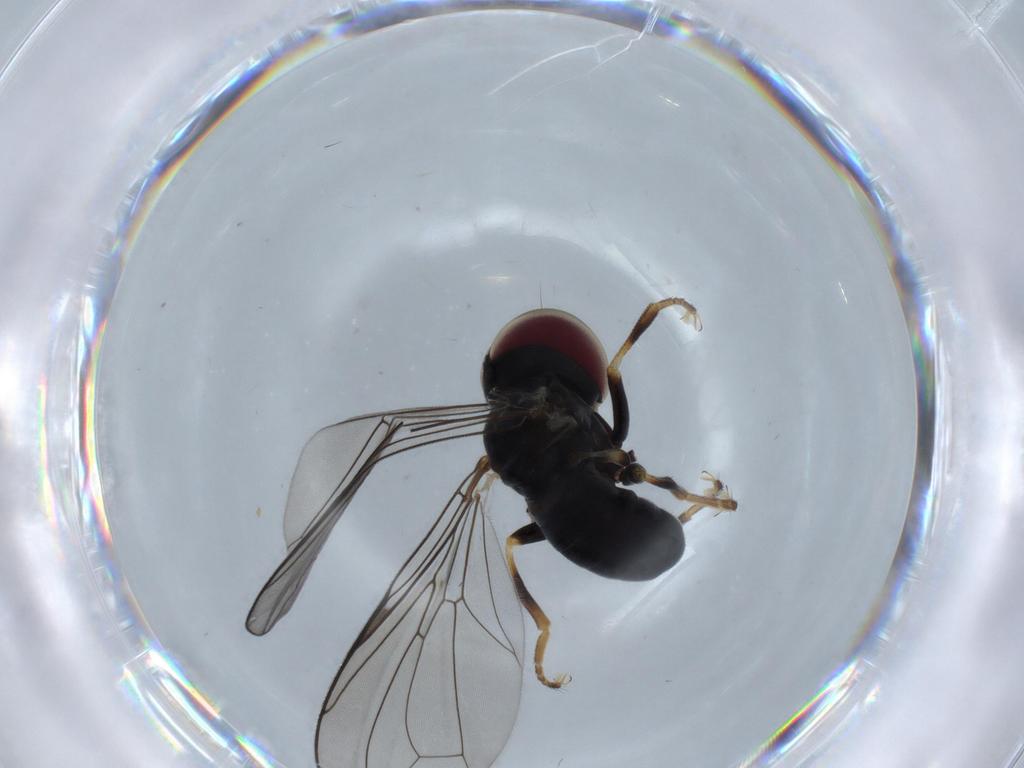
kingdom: Animalia
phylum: Arthropoda
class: Insecta
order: Diptera
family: Pipunculidae
